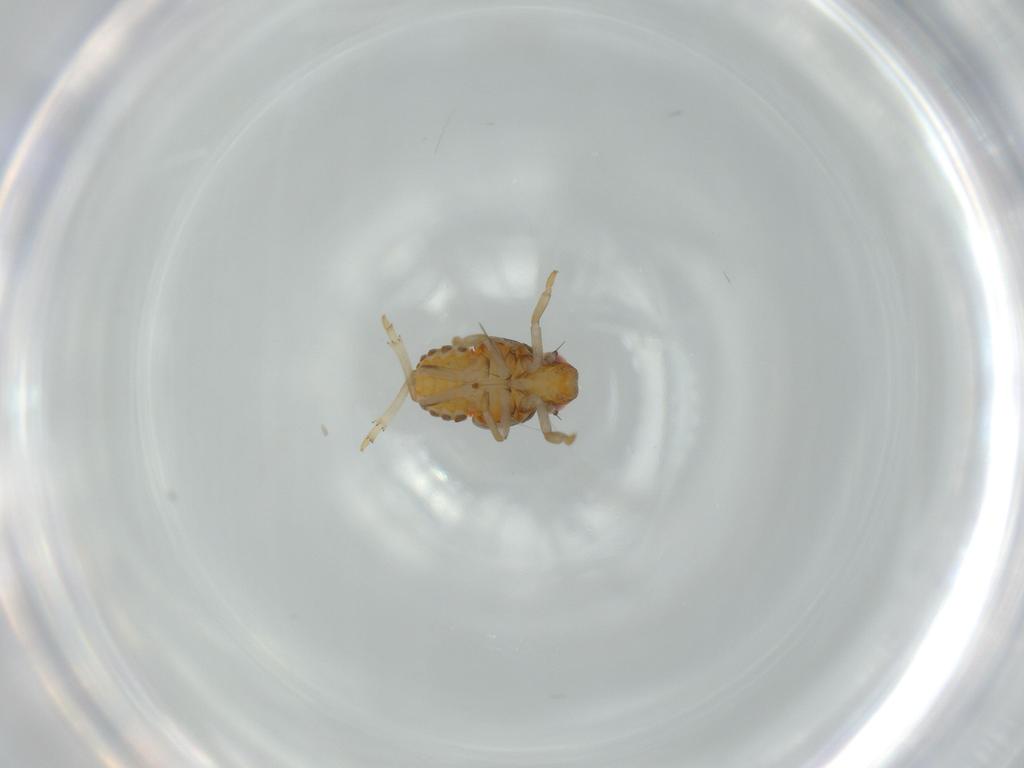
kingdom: Animalia
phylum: Arthropoda
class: Insecta
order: Hemiptera
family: Issidae
